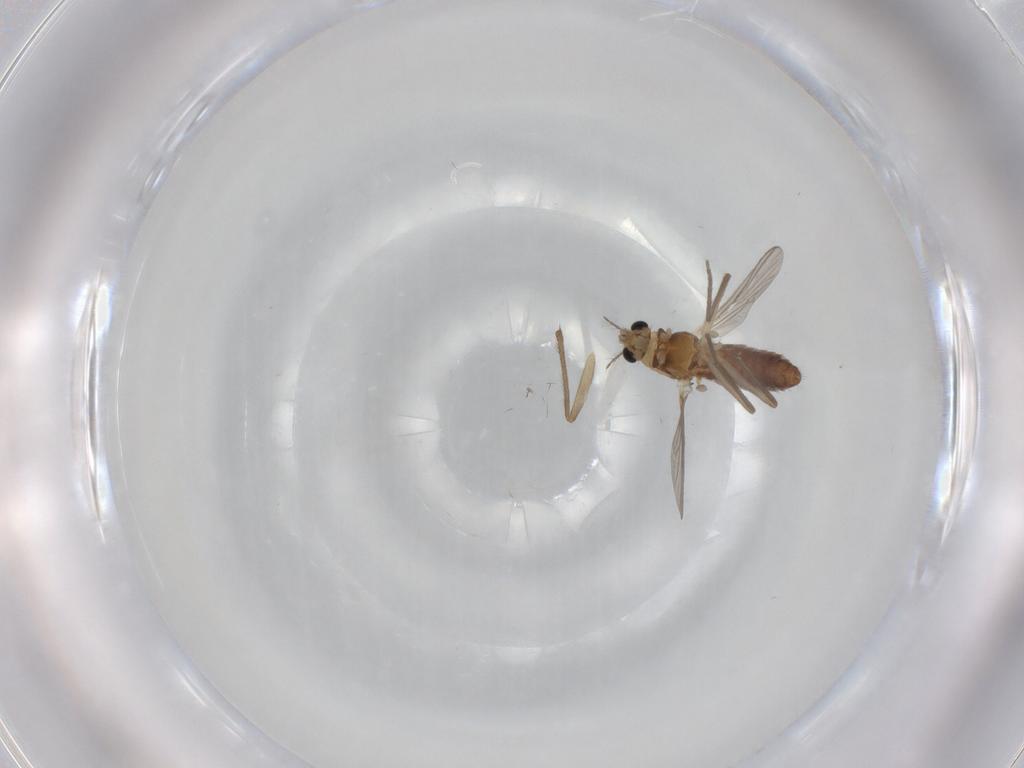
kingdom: Animalia
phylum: Arthropoda
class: Insecta
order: Diptera
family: Chironomidae
